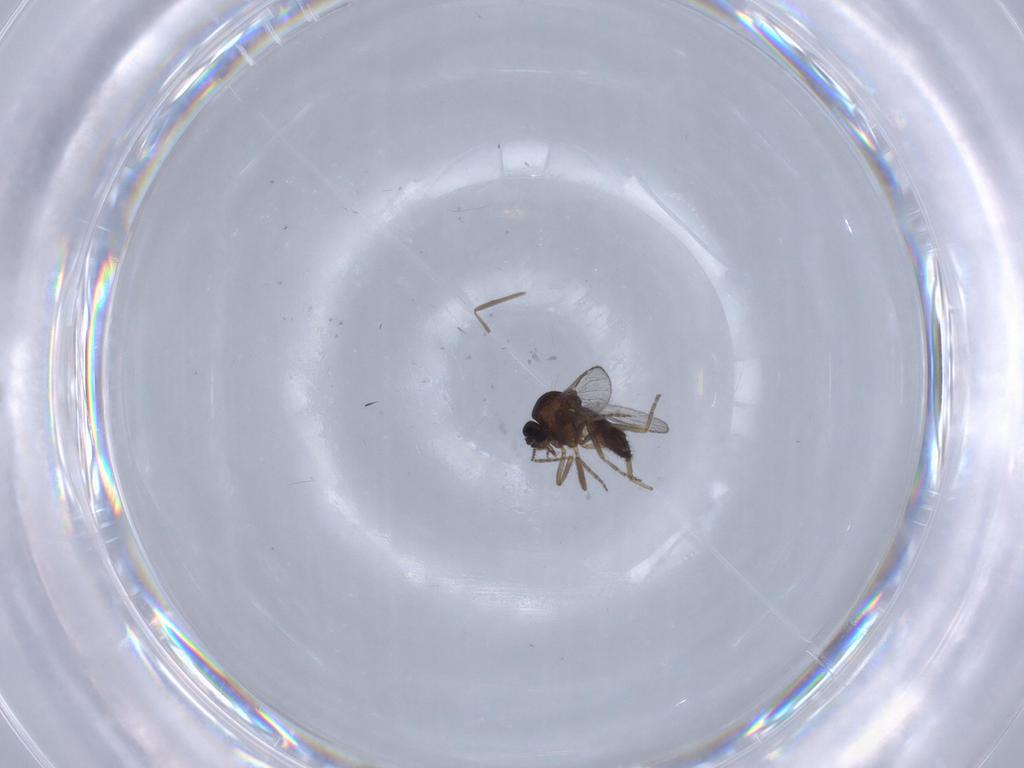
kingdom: Animalia
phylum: Arthropoda
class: Insecta
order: Diptera
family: Ceratopogonidae
